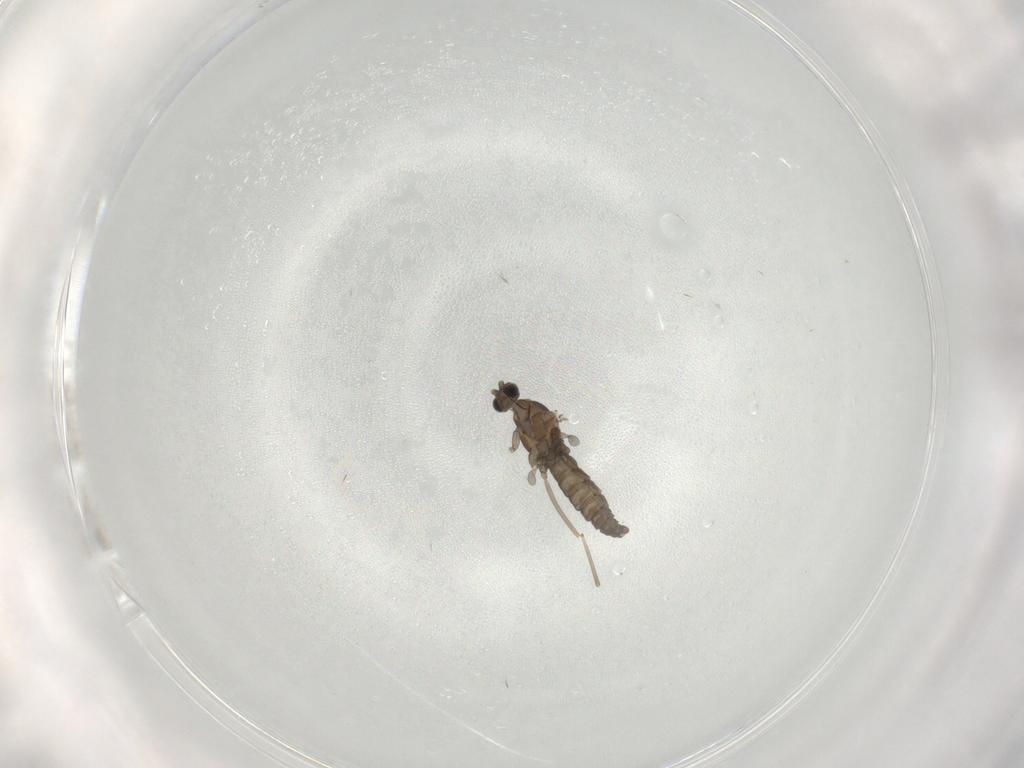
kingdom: Animalia
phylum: Arthropoda
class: Insecta
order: Diptera
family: Cecidomyiidae
